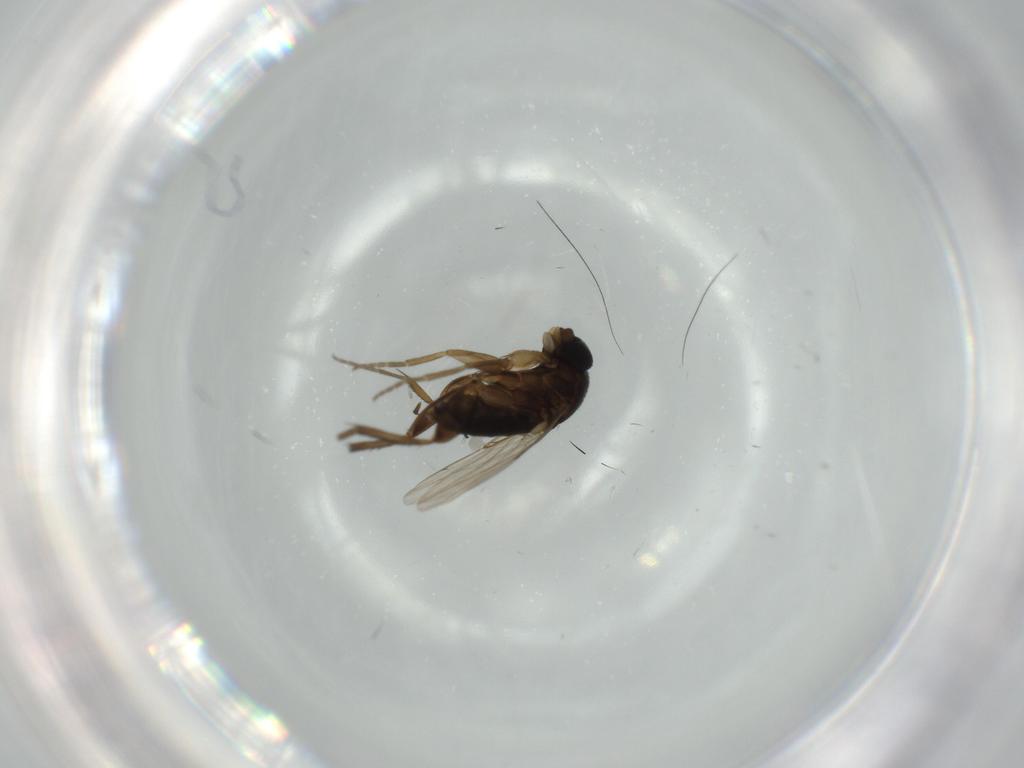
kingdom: Animalia
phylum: Arthropoda
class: Insecta
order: Diptera
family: Phoridae
